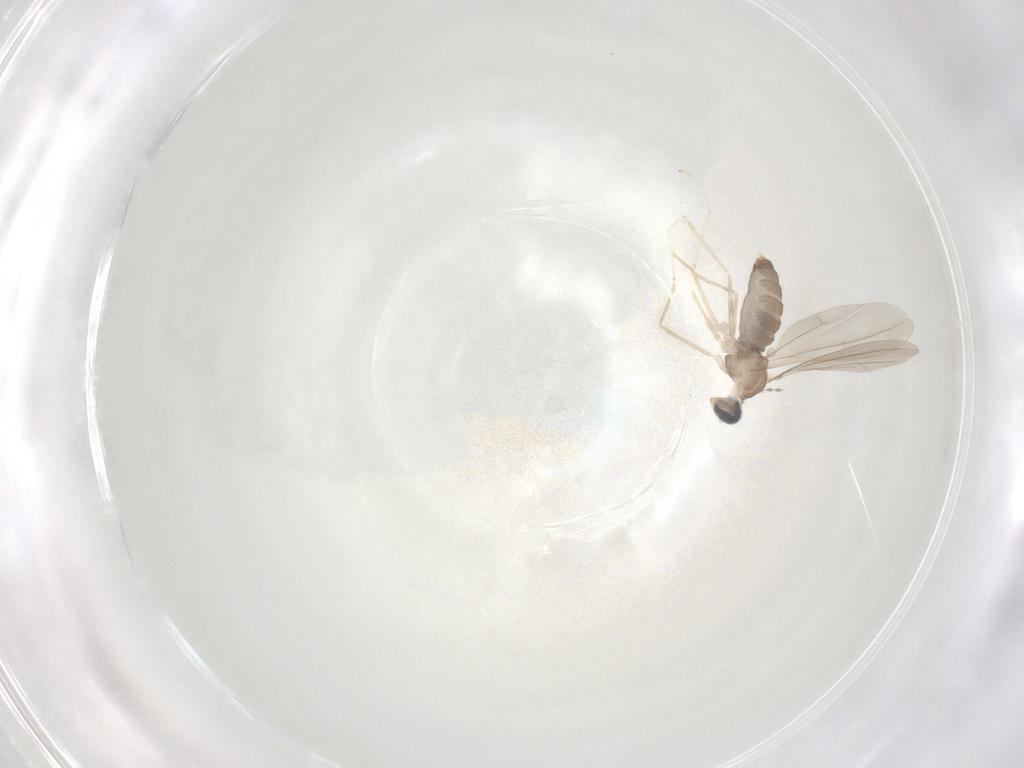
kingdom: Animalia
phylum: Arthropoda
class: Insecta
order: Diptera
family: Cecidomyiidae
